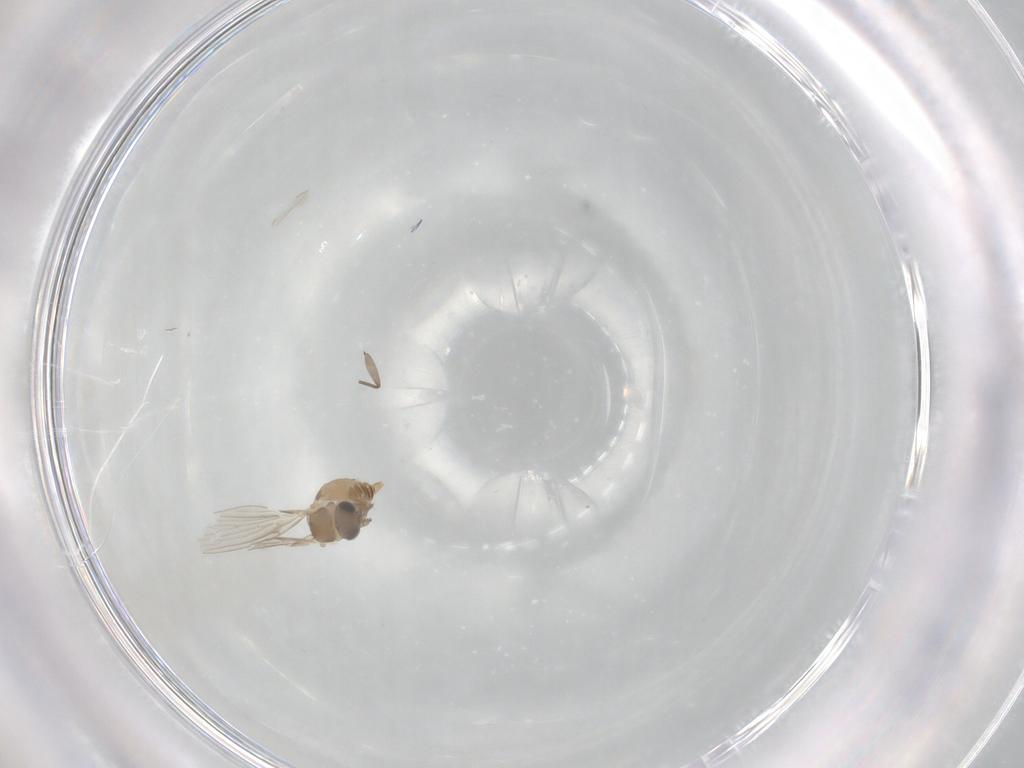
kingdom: Animalia
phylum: Arthropoda
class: Insecta
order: Diptera
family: Psychodidae
